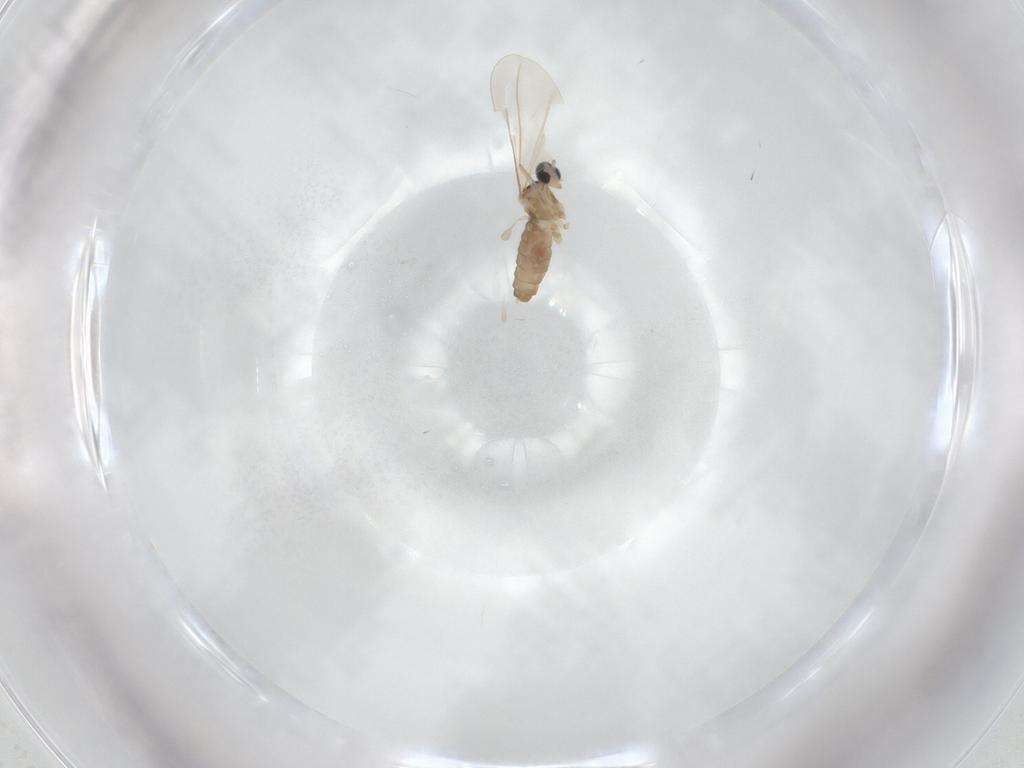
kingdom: Animalia
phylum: Arthropoda
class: Insecta
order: Diptera
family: Cecidomyiidae
